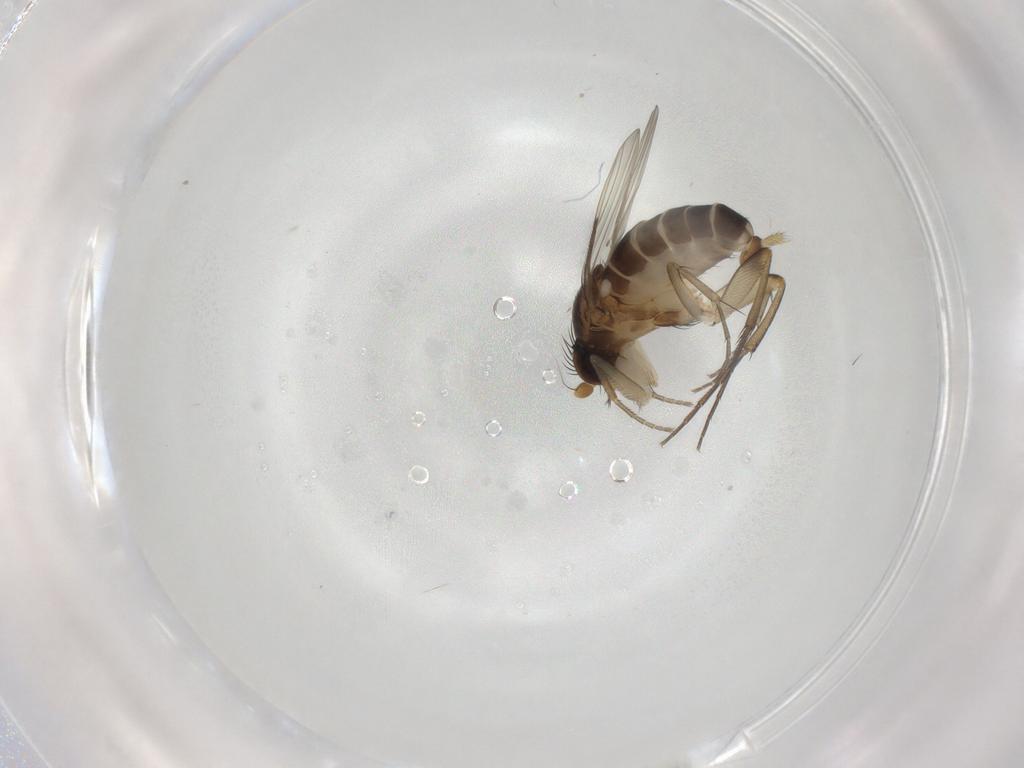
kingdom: Animalia
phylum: Arthropoda
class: Insecta
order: Diptera
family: Phoridae
